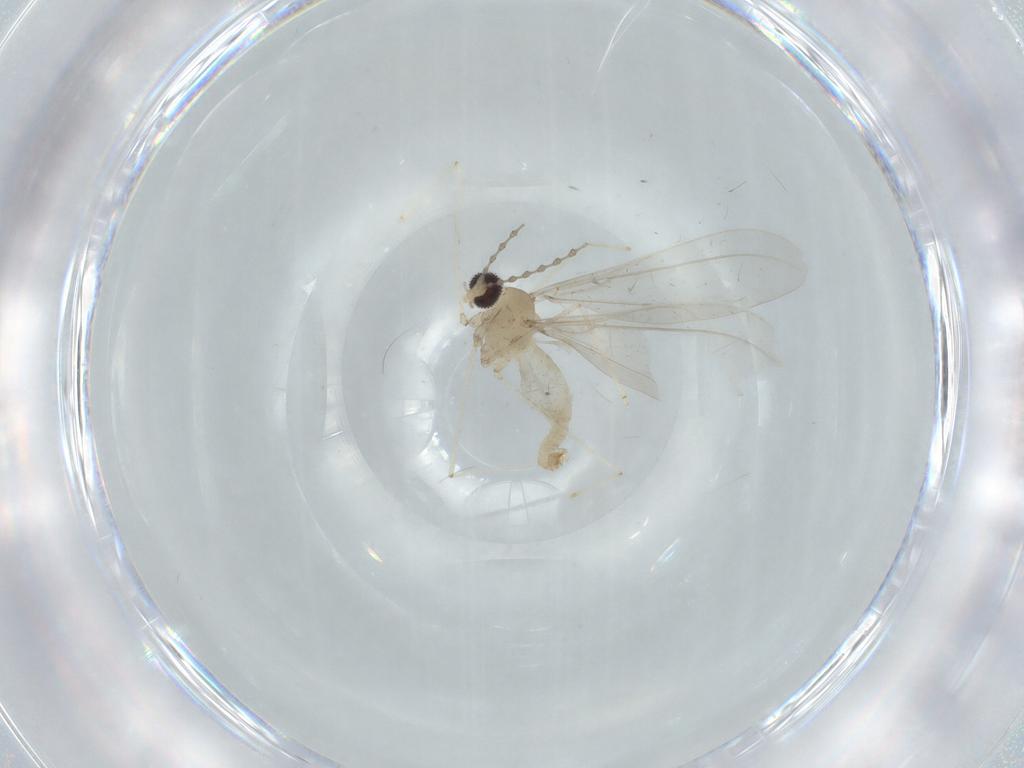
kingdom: Animalia
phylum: Arthropoda
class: Insecta
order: Diptera
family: Cecidomyiidae
